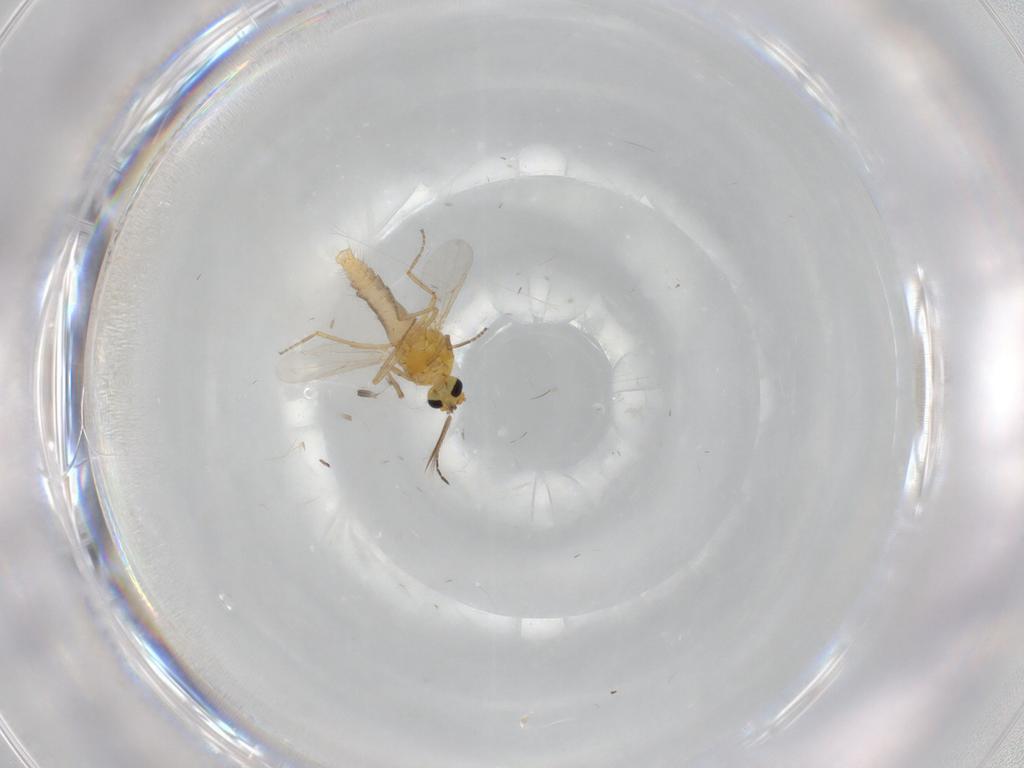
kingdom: Animalia
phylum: Arthropoda
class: Insecta
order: Diptera
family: Ceratopogonidae
